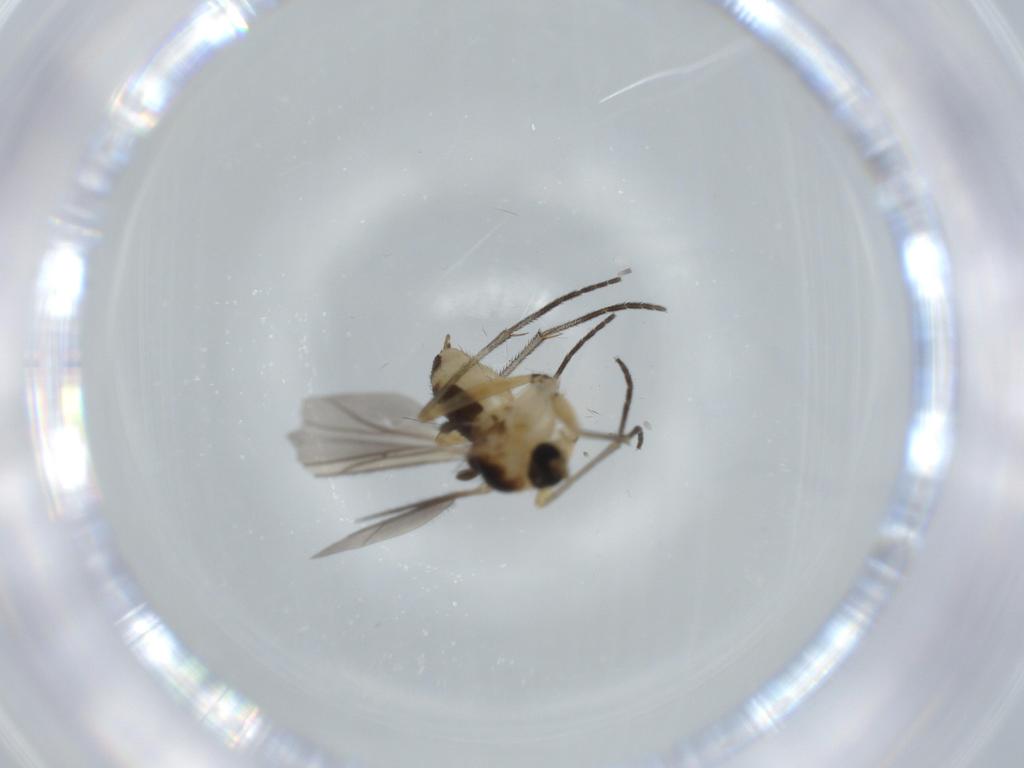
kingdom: Animalia
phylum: Arthropoda
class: Insecta
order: Diptera
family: Sciaridae
